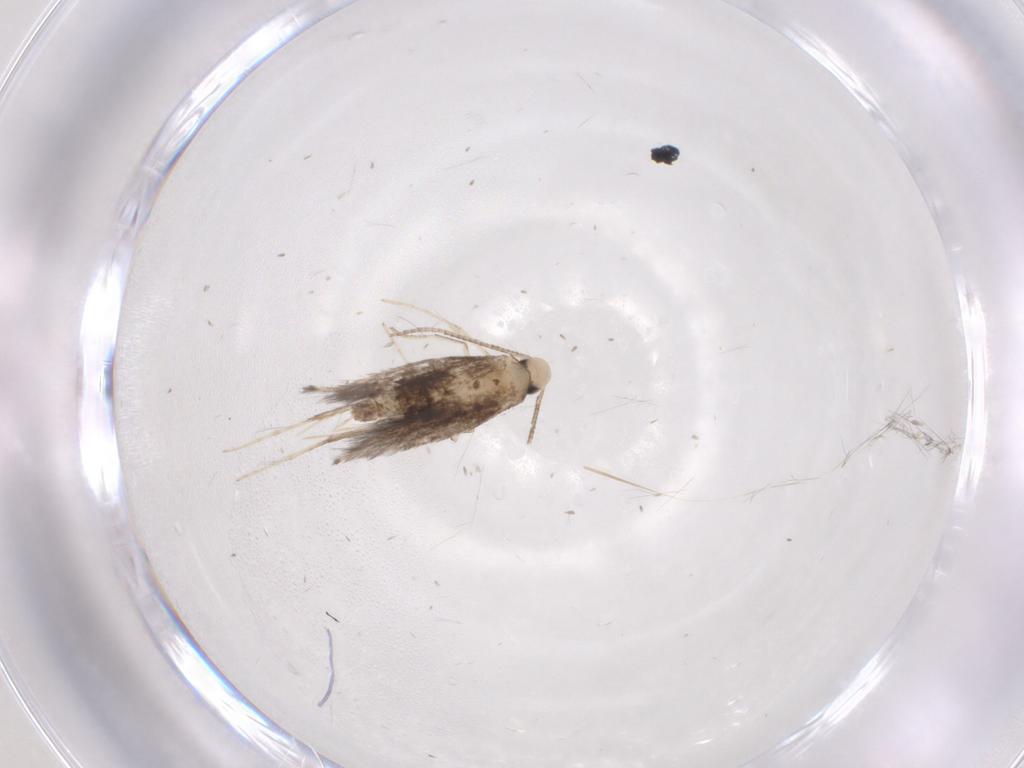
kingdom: Animalia
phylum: Arthropoda
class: Insecta
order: Lepidoptera
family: Gracillariidae
